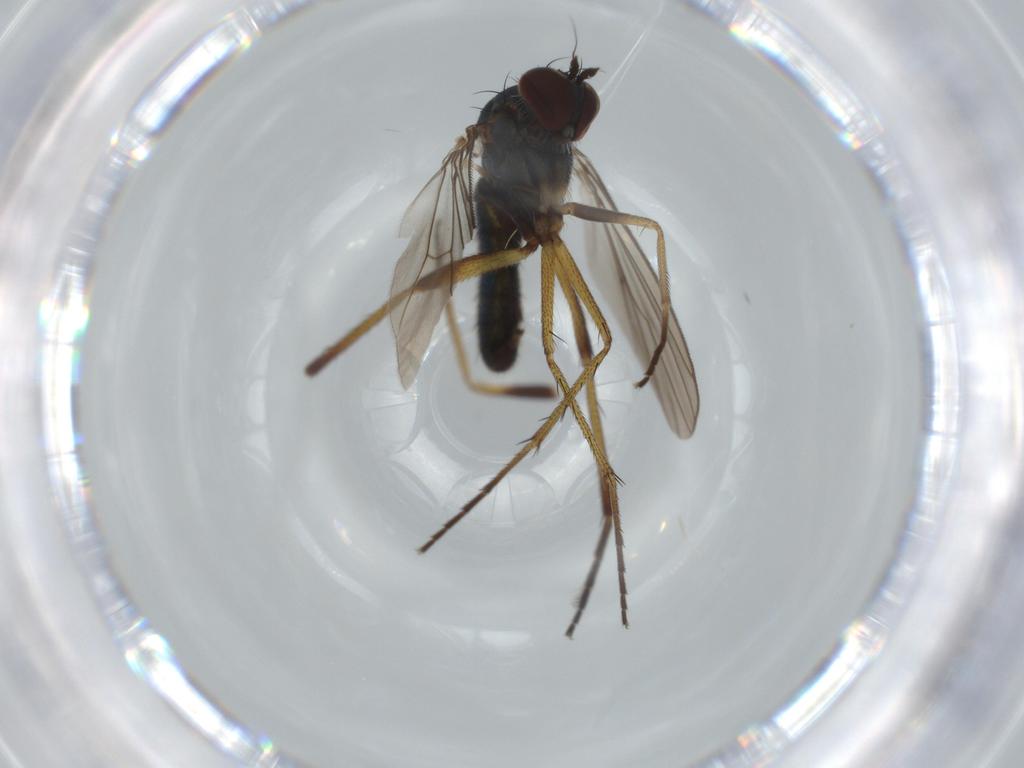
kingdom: Animalia
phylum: Arthropoda
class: Insecta
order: Diptera
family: Dolichopodidae
